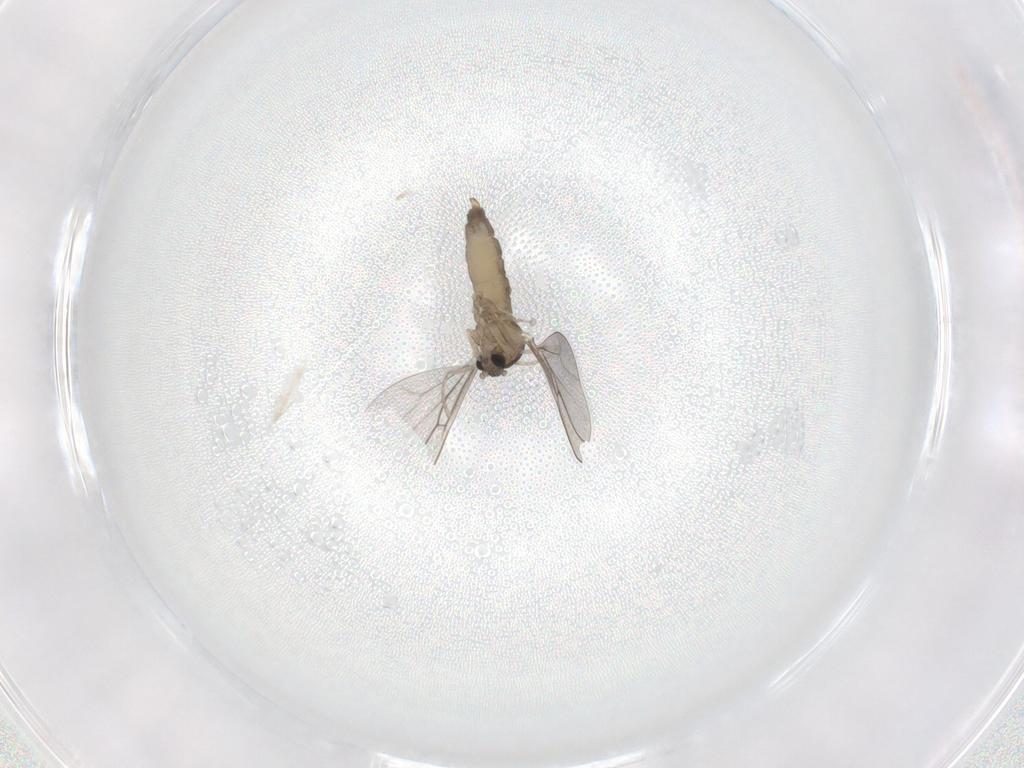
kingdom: Animalia
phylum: Arthropoda
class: Insecta
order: Diptera
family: Cecidomyiidae
